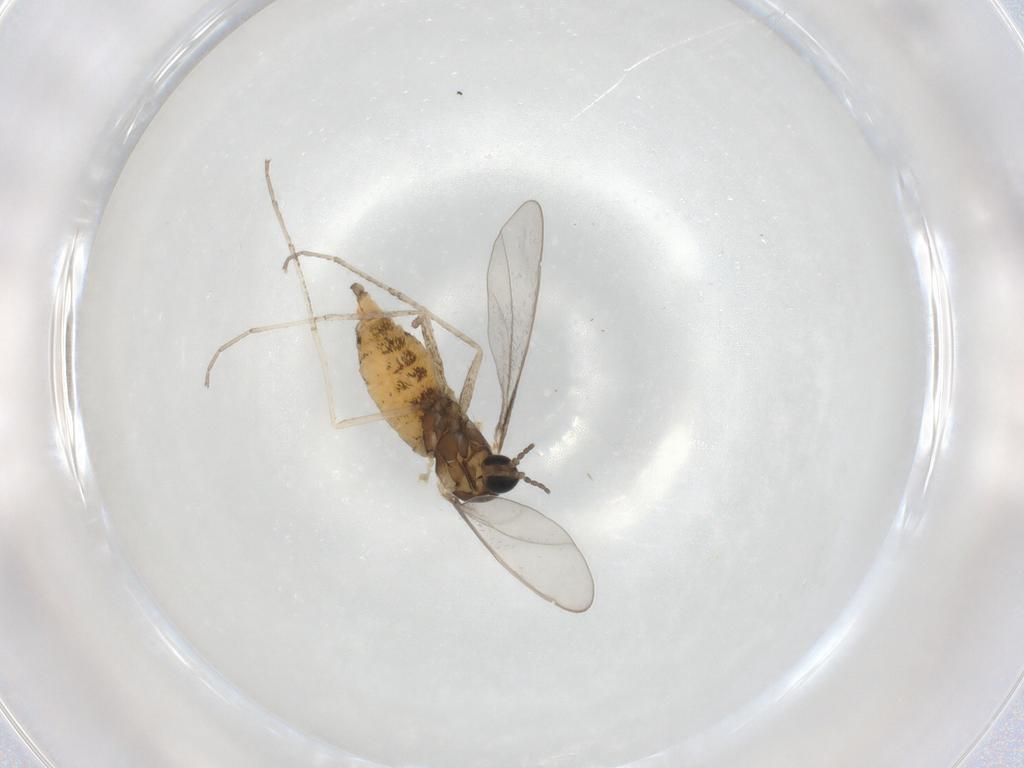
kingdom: Animalia
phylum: Arthropoda
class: Insecta
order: Diptera
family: Cecidomyiidae
